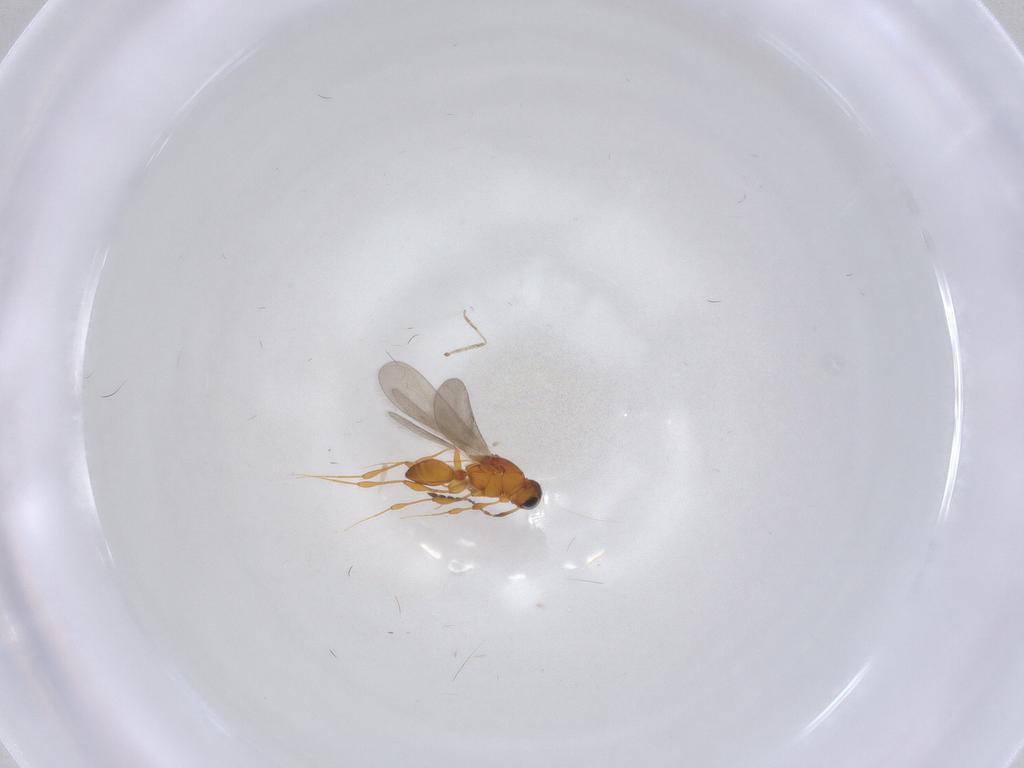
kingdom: Animalia
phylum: Arthropoda
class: Insecta
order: Hymenoptera
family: Platygastridae
